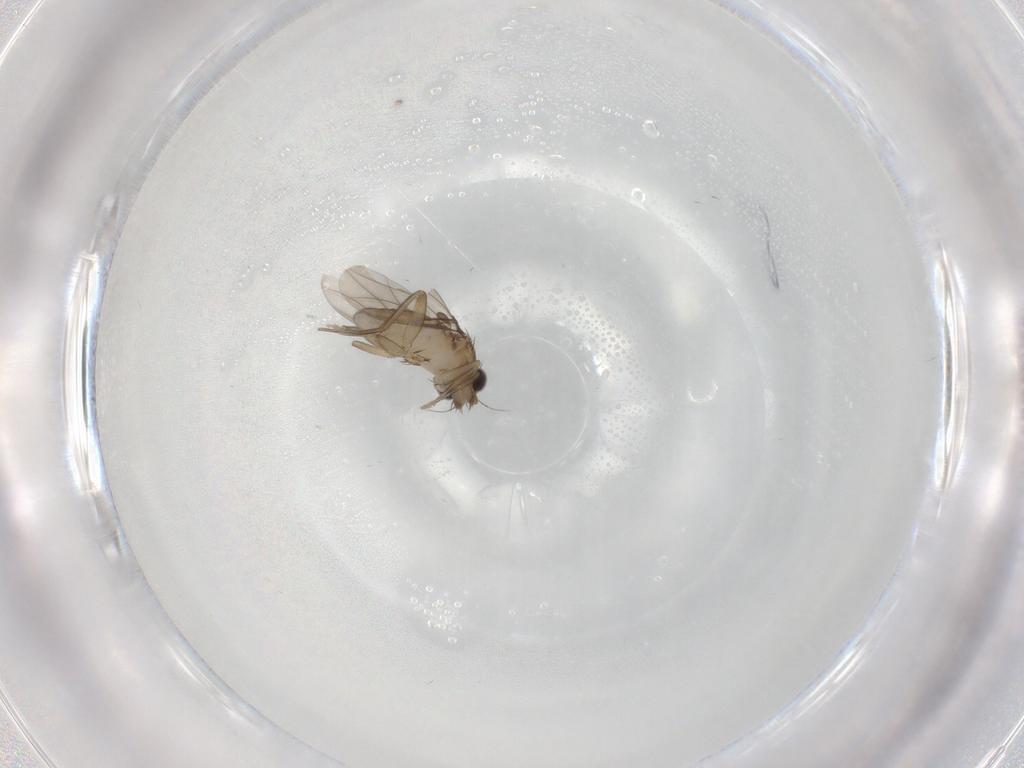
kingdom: Animalia
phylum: Arthropoda
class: Insecta
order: Diptera
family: Phoridae
